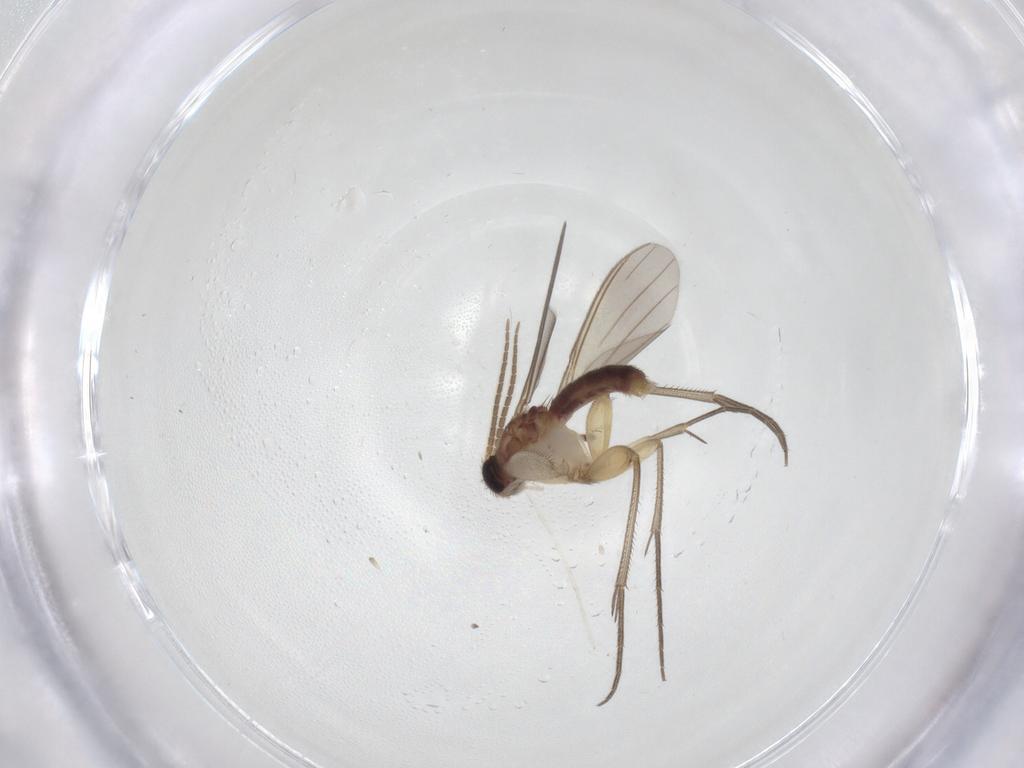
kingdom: Animalia
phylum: Arthropoda
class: Insecta
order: Diptera
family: Mycetophilidae
